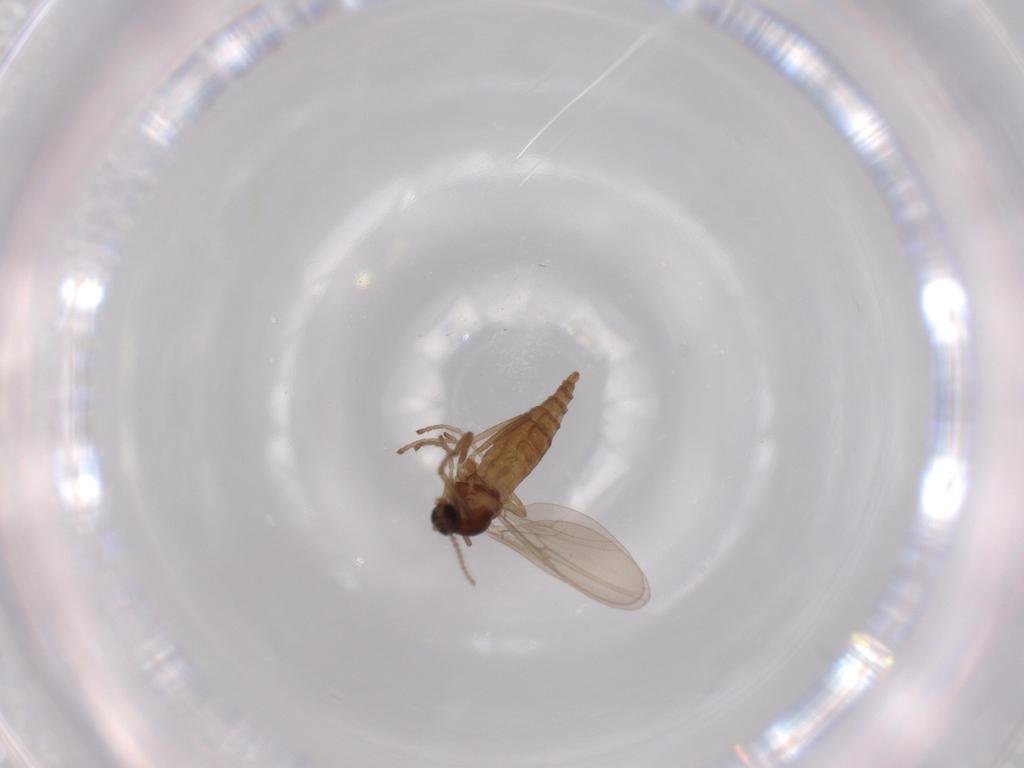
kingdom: Animalia
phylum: Arthropoda
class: Insecta
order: Diptera
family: Cecidomyiidae
